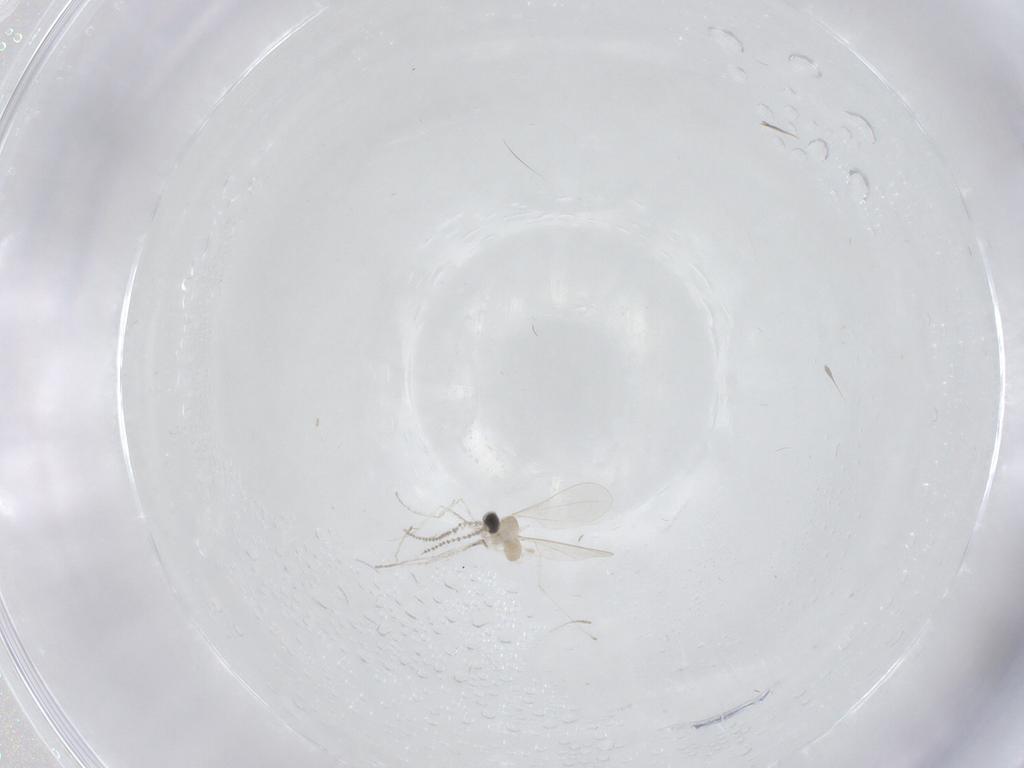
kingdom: Animalia
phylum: Arthropoda
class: Insecta
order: Diptera
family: Cecidomyiidae
